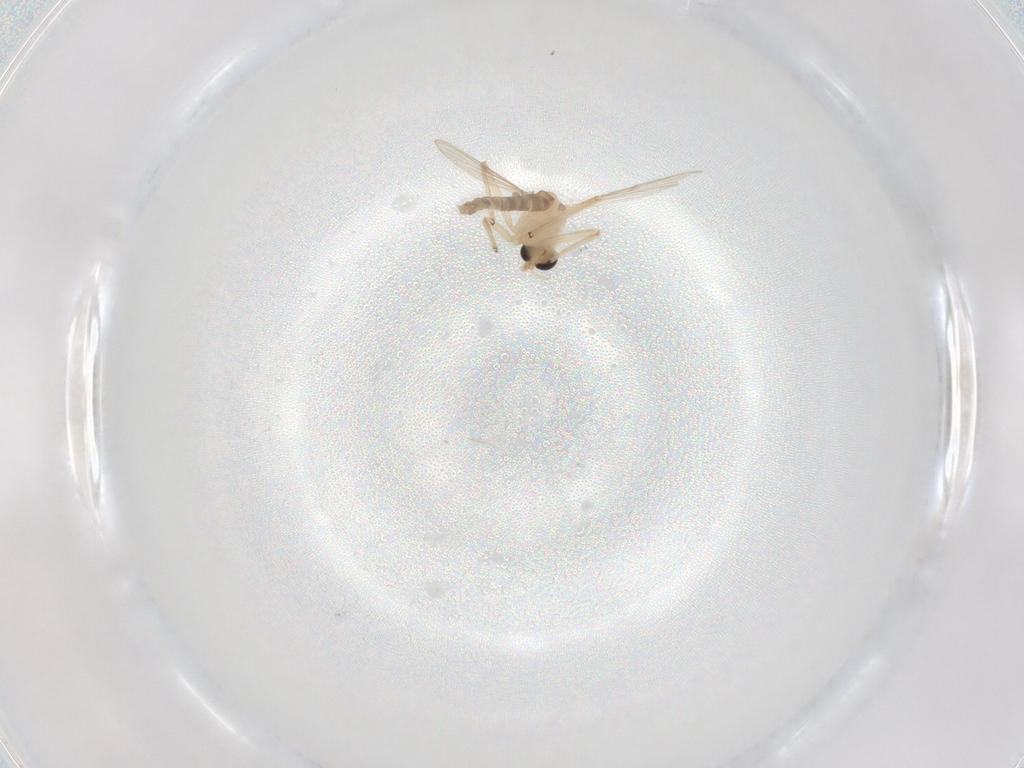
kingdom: Animalia
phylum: Arthropoda
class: Insecta
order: Diptera
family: Chironomidae
